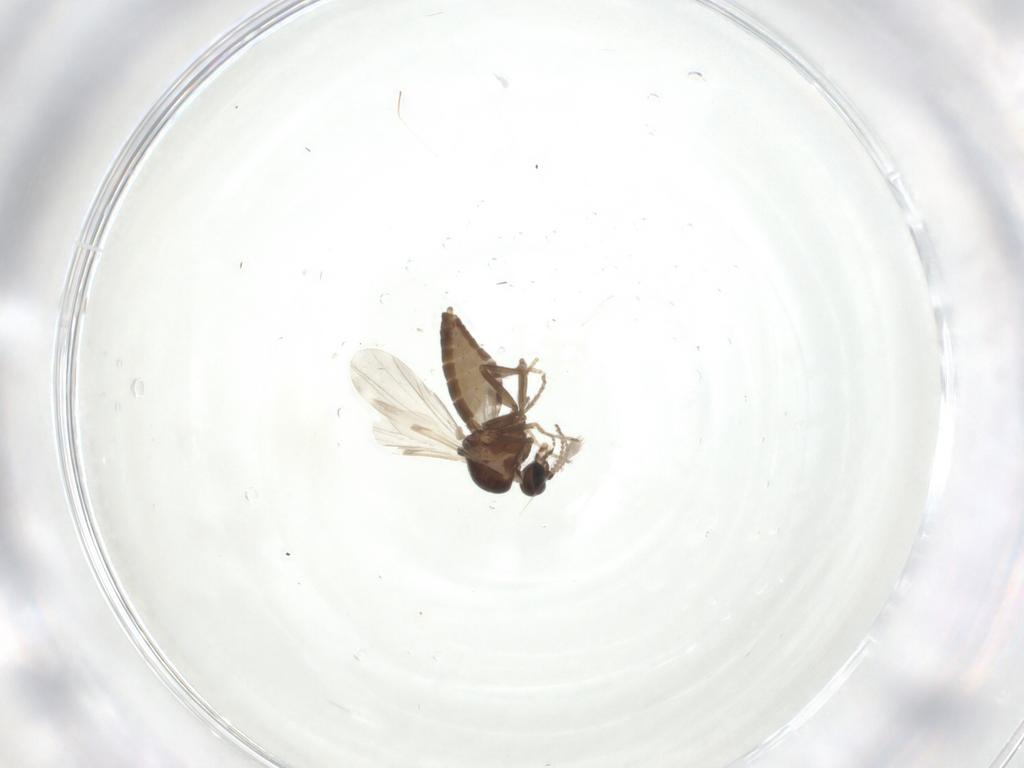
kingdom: Animalia
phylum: Arthropoda
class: Insecta
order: Diptera
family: Ceratopogonidae
